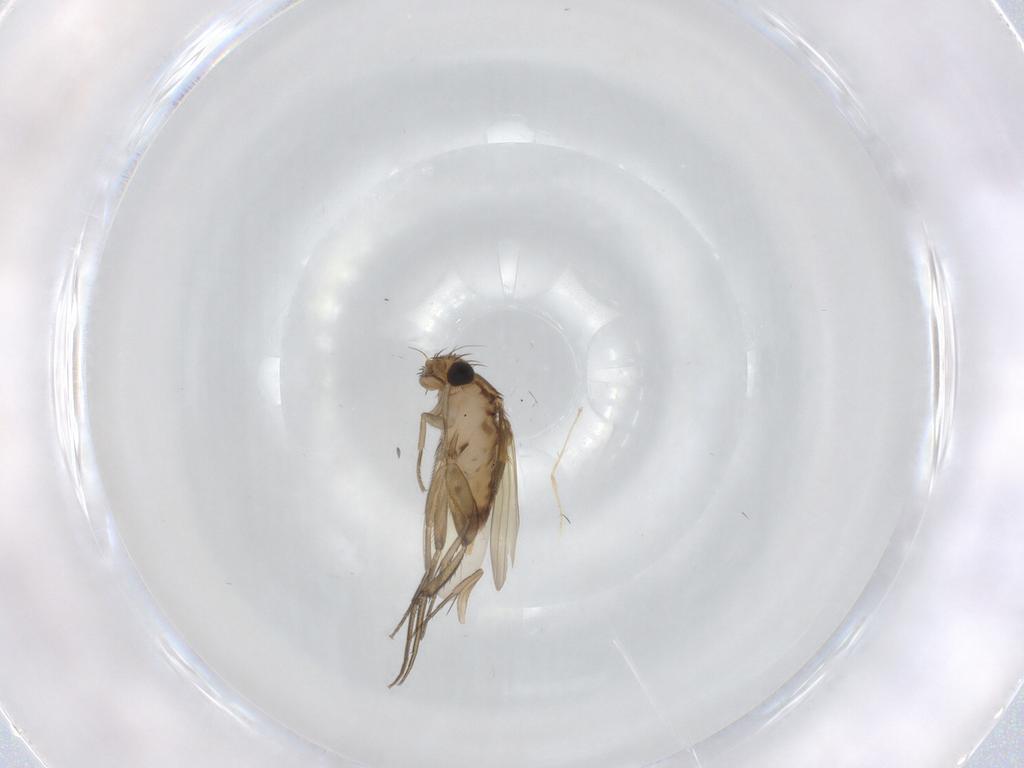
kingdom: Animalia
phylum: Arthropoda
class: Insecta
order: Diptera
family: Phoridae
